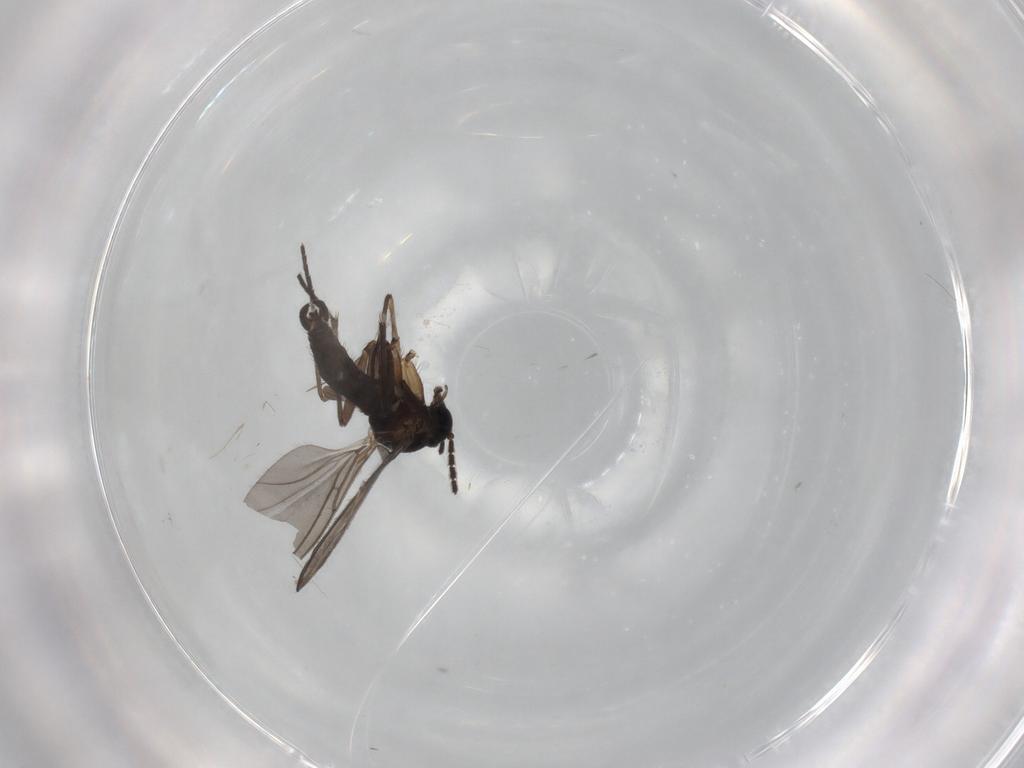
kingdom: Animalia
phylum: Arthropoda
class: Insecta
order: Diptera
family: Sciaridae
